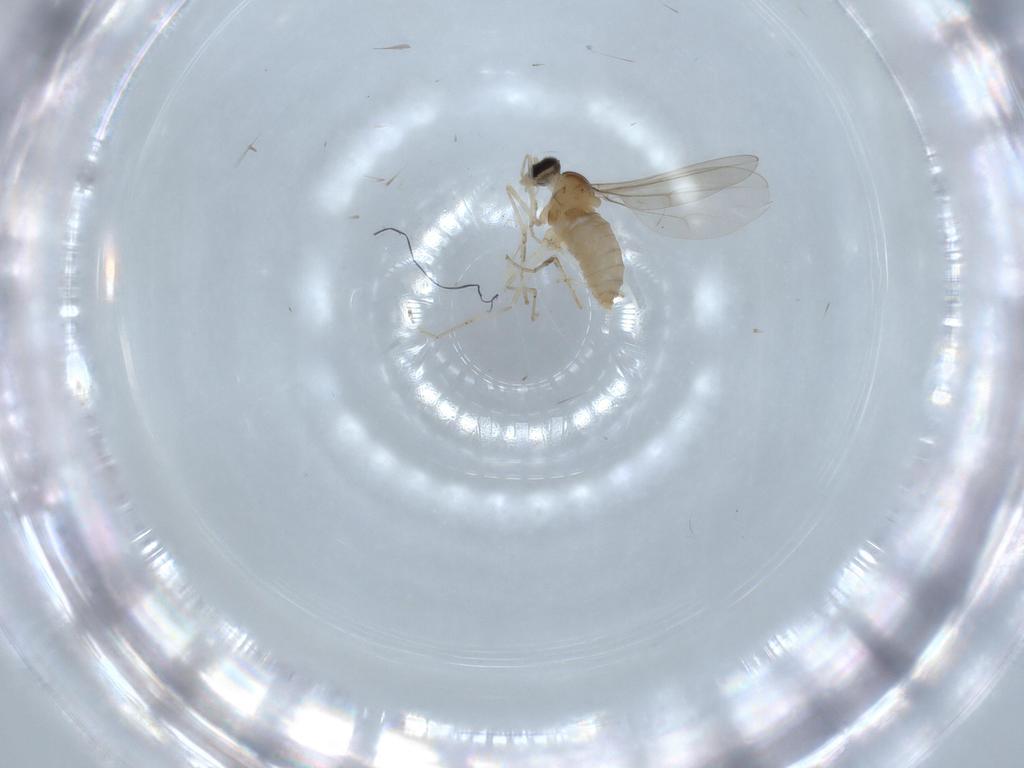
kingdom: Animalia
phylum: Arthropoda
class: Insecta
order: Diptera
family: Cecidomyiidae
